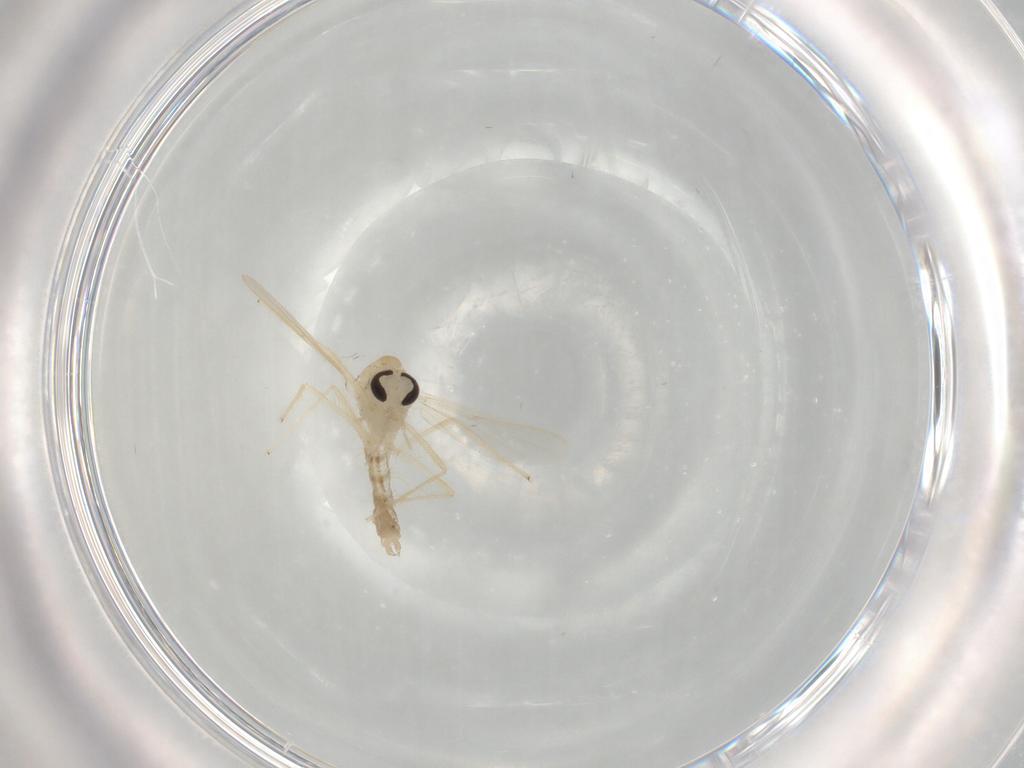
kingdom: Animalia
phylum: Arthropoda
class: Insecta
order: Diptera
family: Chironomidae
